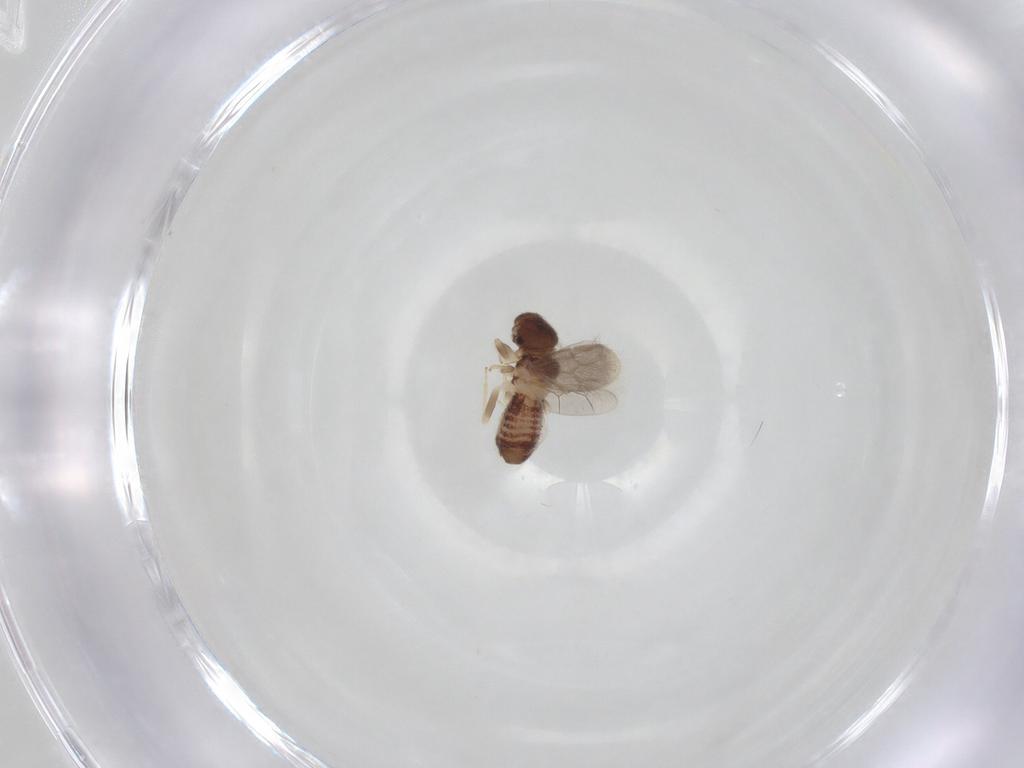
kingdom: Animalia
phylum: Arthropoda
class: Insecta
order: Psocodea
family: Archipsocidae
